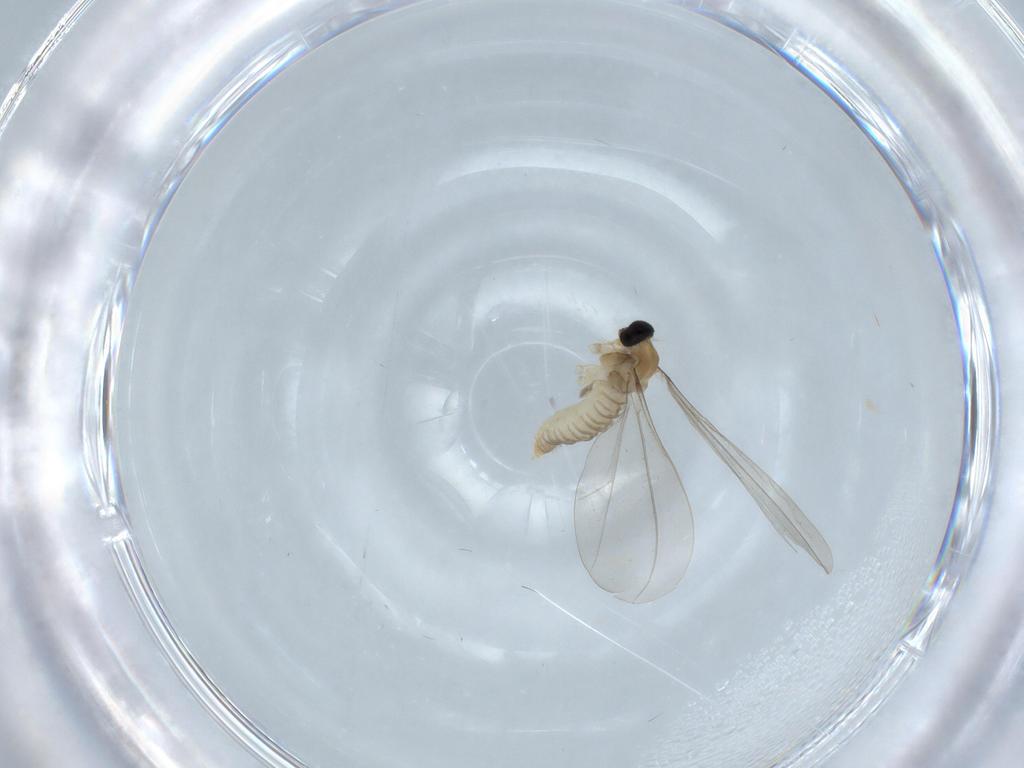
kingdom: Animalia
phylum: Arthropoda
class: Insecta
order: Diptera
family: Cecidomyiidae
